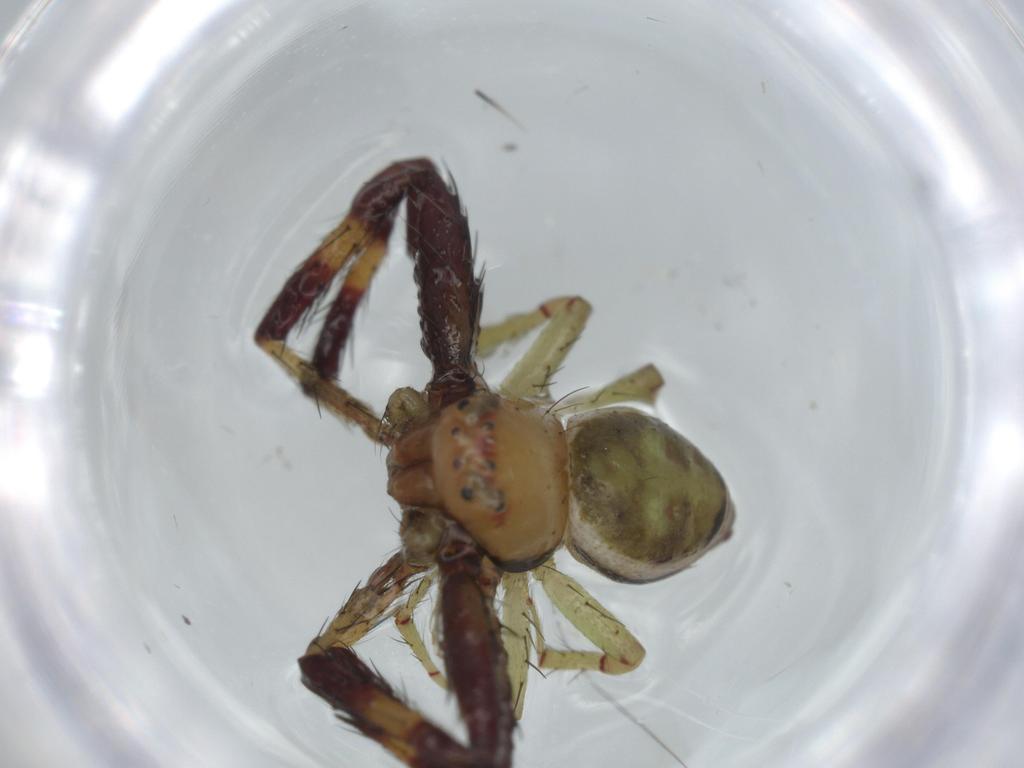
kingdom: Animalia
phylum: Arthropoda
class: Arachnida
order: Araneae
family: Thomisidae
